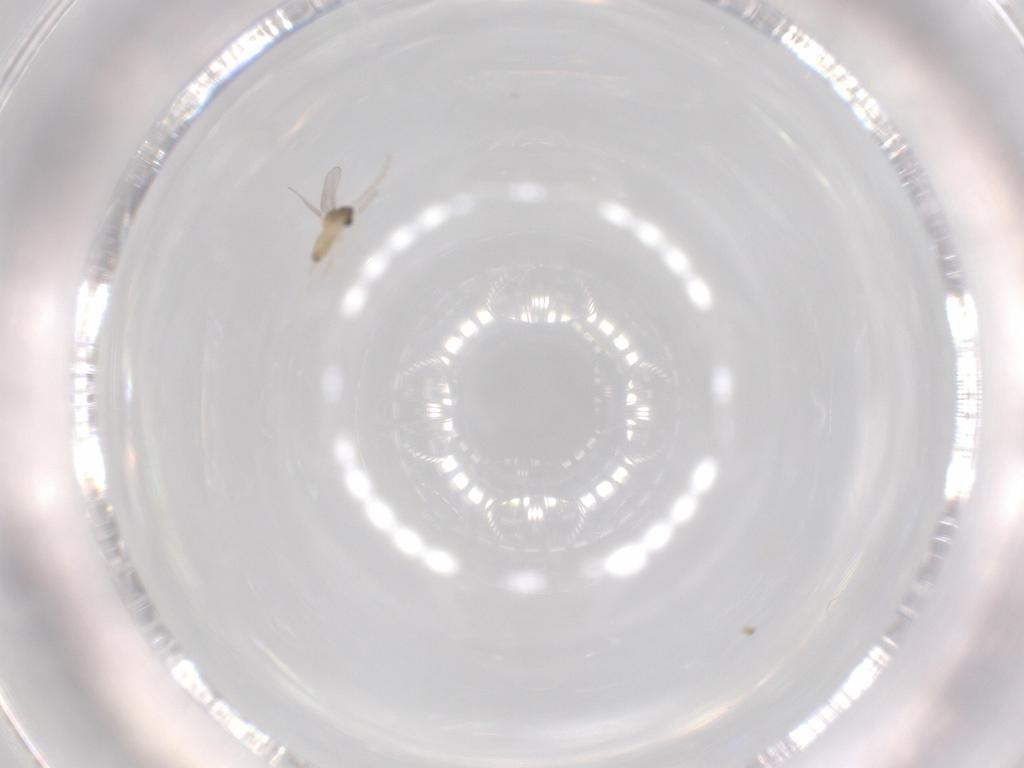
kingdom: Animalia
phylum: Arthropoda
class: Insecta
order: Diptera
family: Cecidomyiidae
